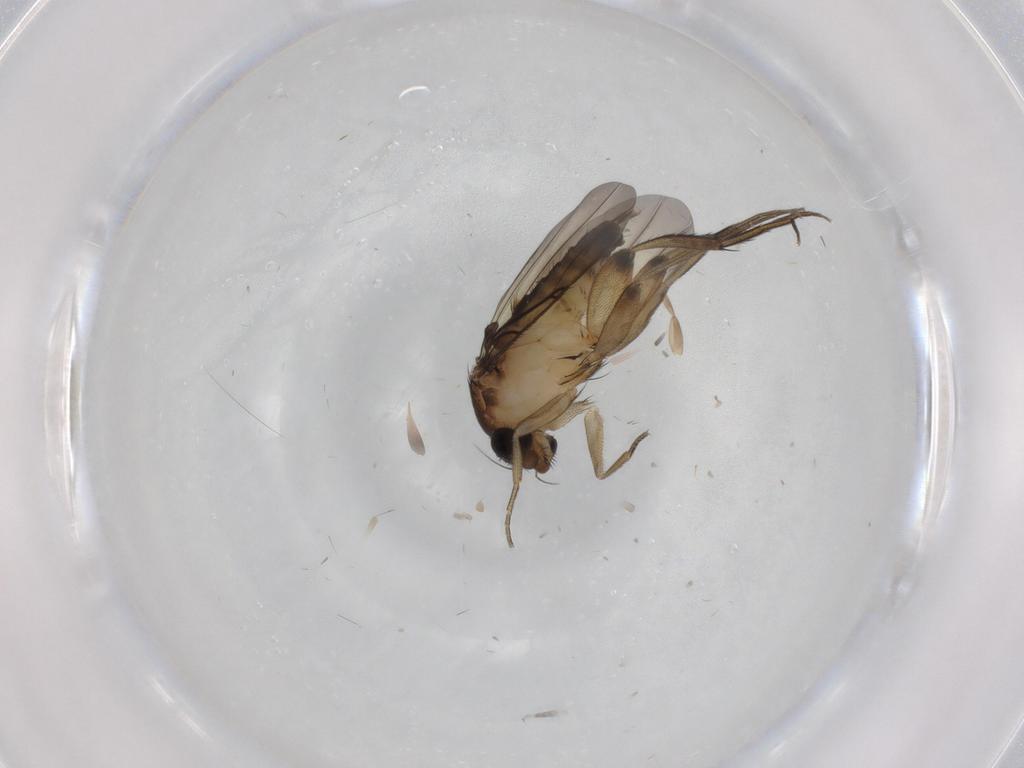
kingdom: Animalia
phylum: Arthropoda
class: Insecta
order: Diptera
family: Phoridae
